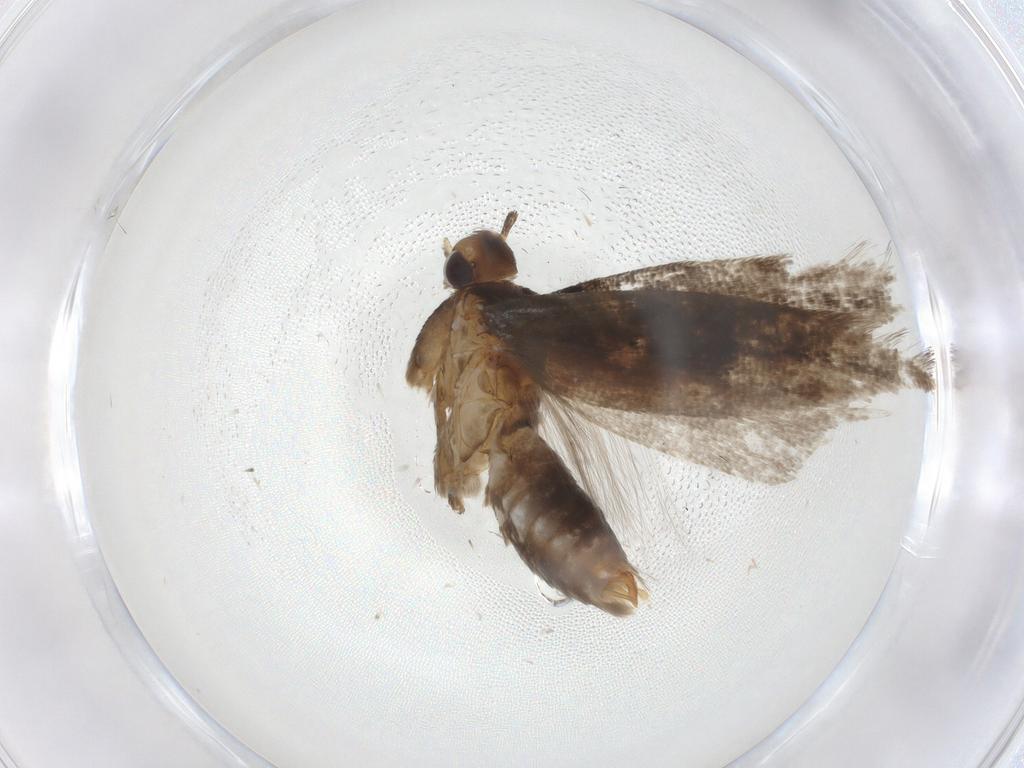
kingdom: Animalia
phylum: Arthropoda
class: Insecta
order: Lepidoptera
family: Gelechiidae
